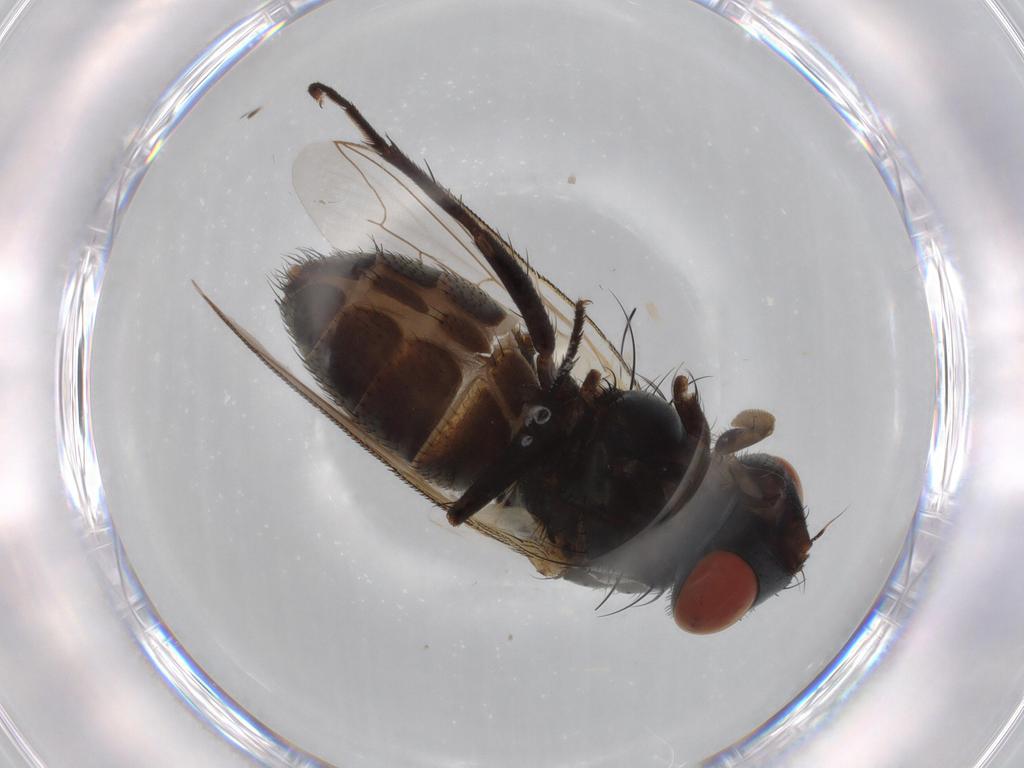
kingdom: Animalia
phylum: Arthropoda
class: Insecta
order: Diptera
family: Sarcophagidae
